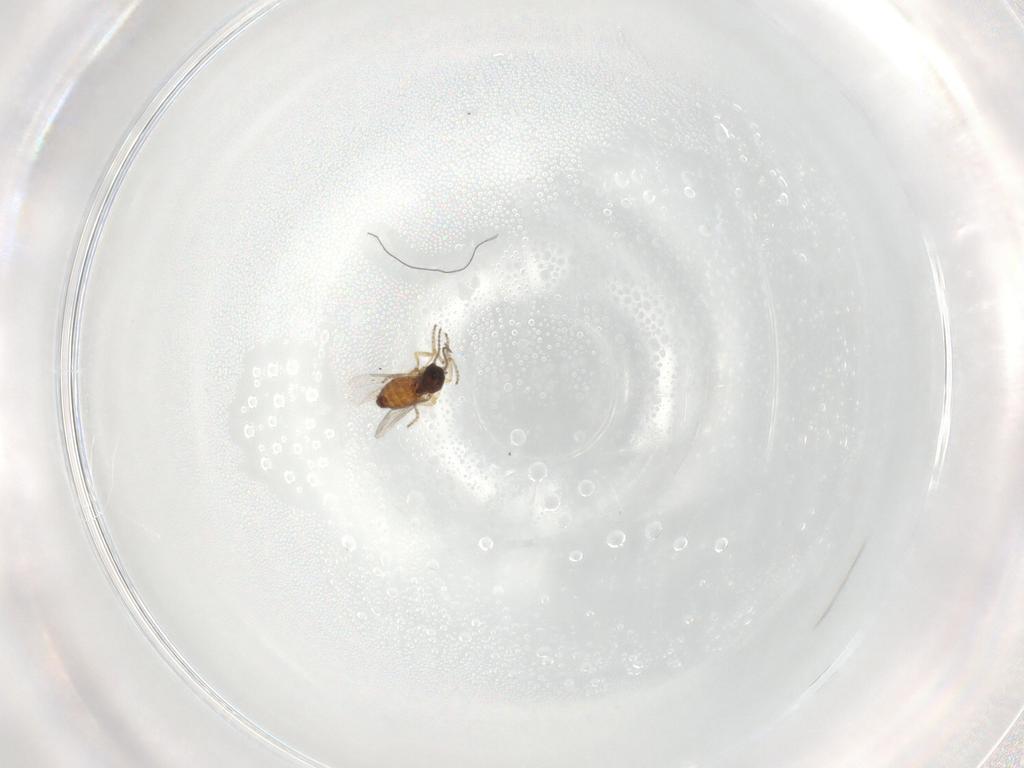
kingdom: Animalia
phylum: Arthropoda
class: Insecta
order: Diptera
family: Ceratopogonidae
